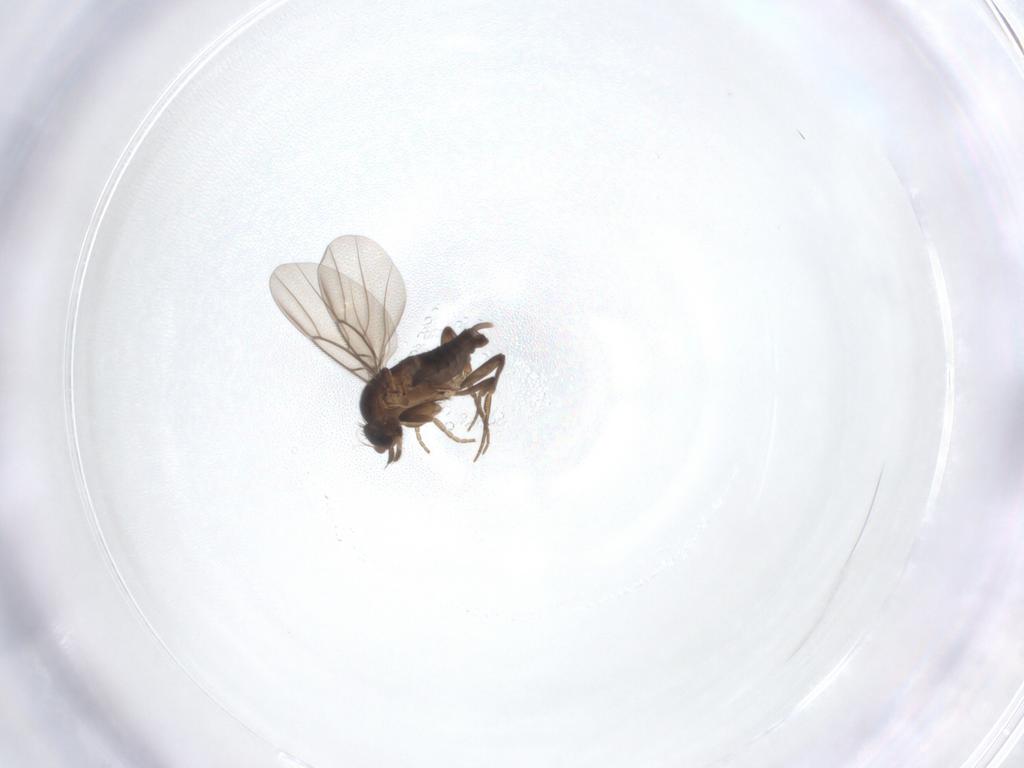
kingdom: Animalia
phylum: Arthropoda
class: Insecta
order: Diptera
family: Phoridae
